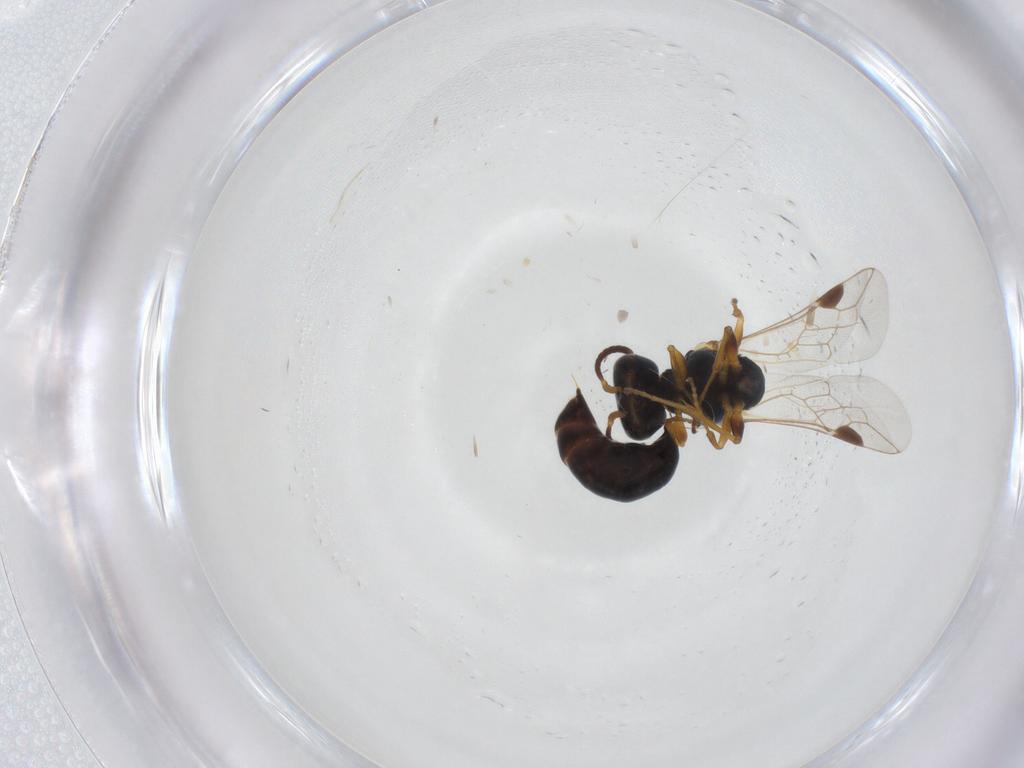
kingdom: Animalia
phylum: Arthropoda
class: Insecta
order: Hymenoptera
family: Crabronidae
